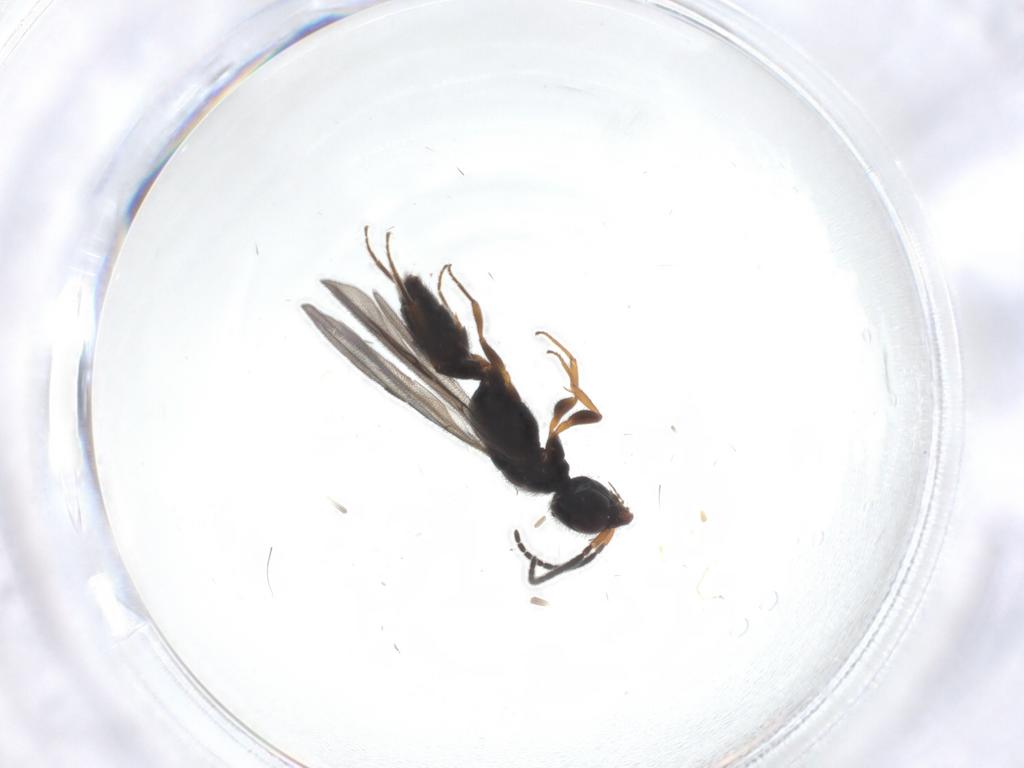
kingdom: Animalia
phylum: Arthropoda
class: Insecta
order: Hymenoptera
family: Bethylidae
